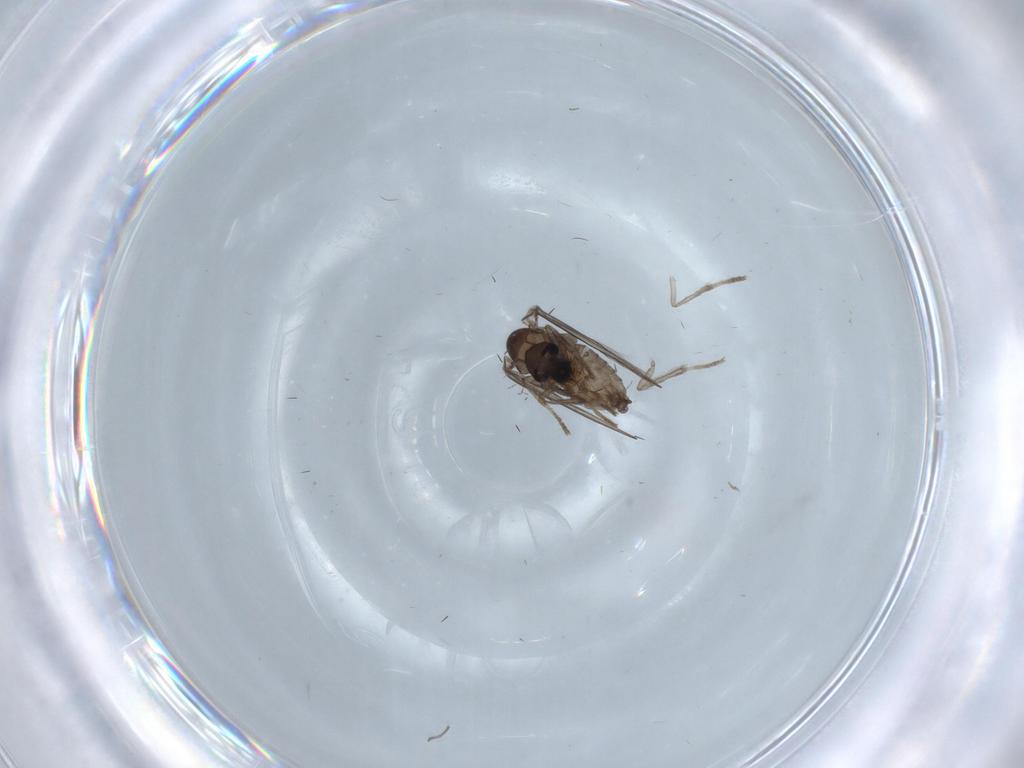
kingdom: Animalia
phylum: Arthropoda
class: Insecta
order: Diptera
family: Psychodidae
